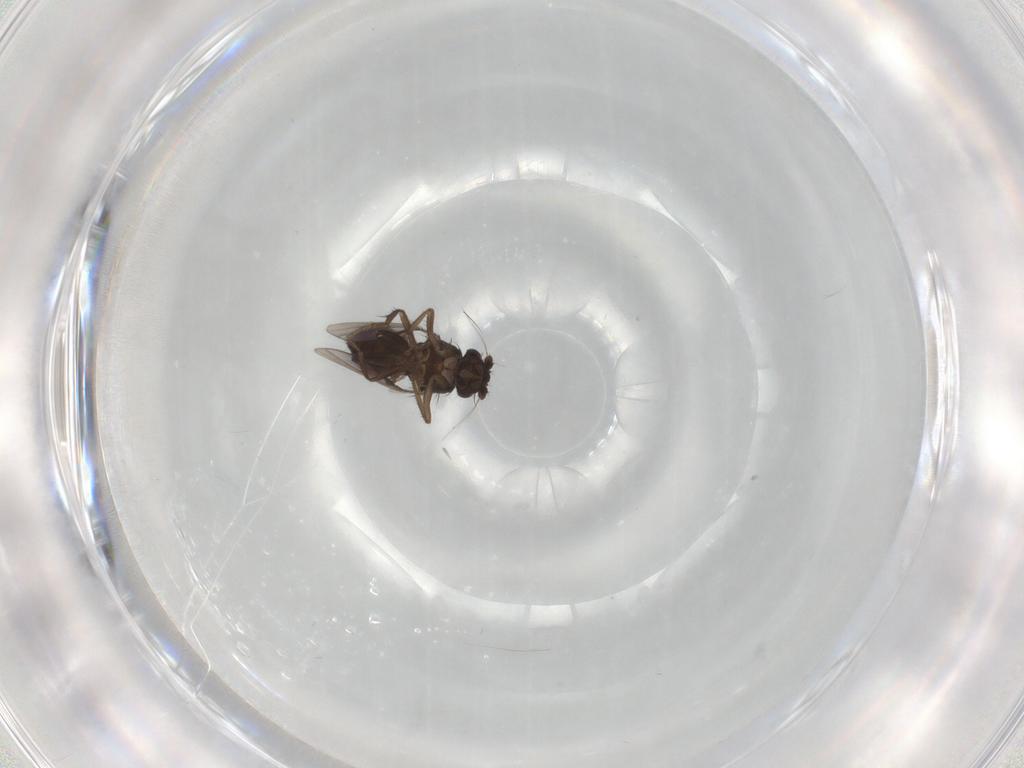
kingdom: Animalia
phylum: Arthropoda
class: Insecta
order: Diptera
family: Sphaeroceridae
